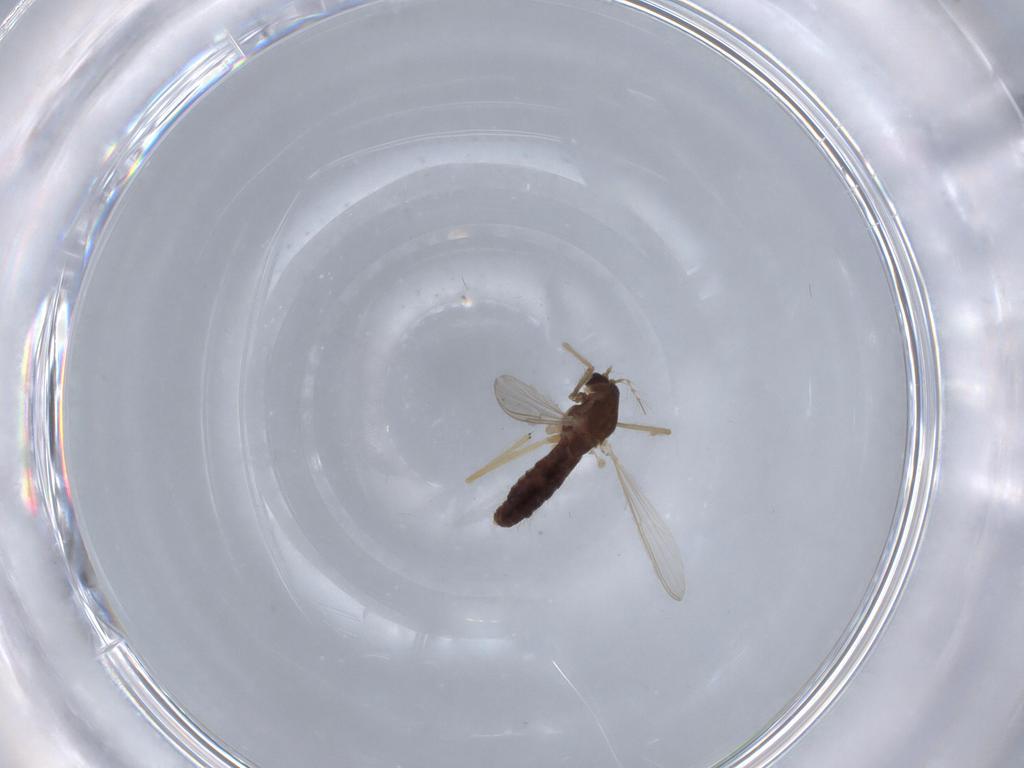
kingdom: Animalia
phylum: Arthropoda
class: Insecta
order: Diptera
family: Chironomidae
